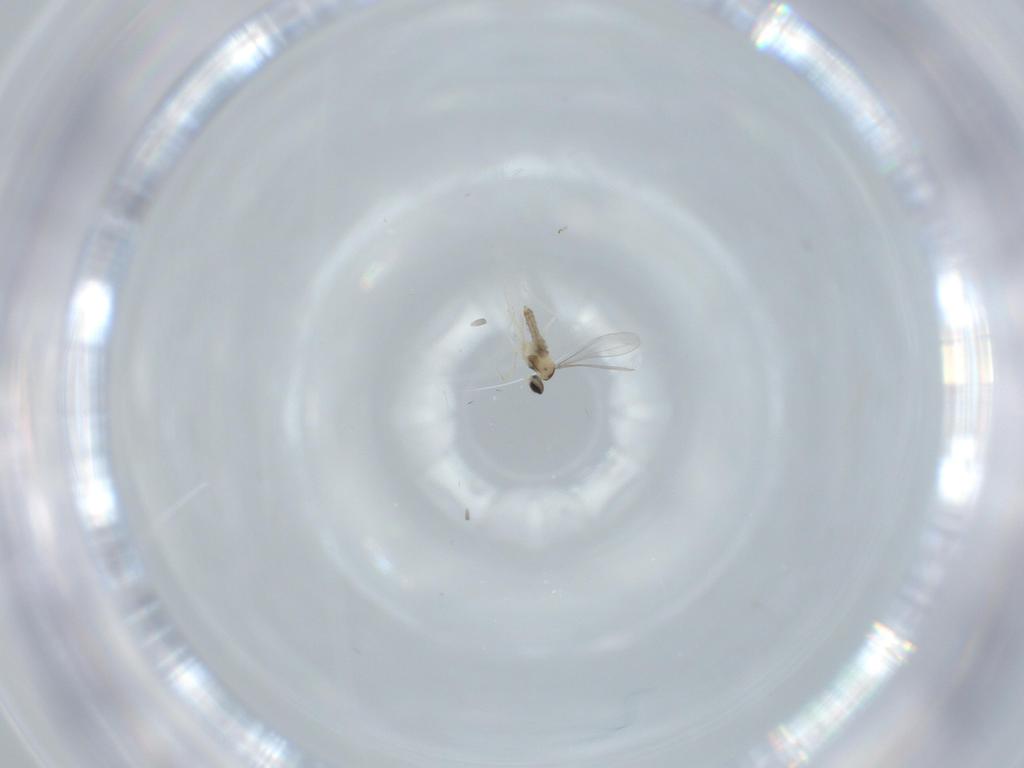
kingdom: Animalia
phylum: Arthropoda
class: Insecta
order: Diptera
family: Cecidomyiidae
